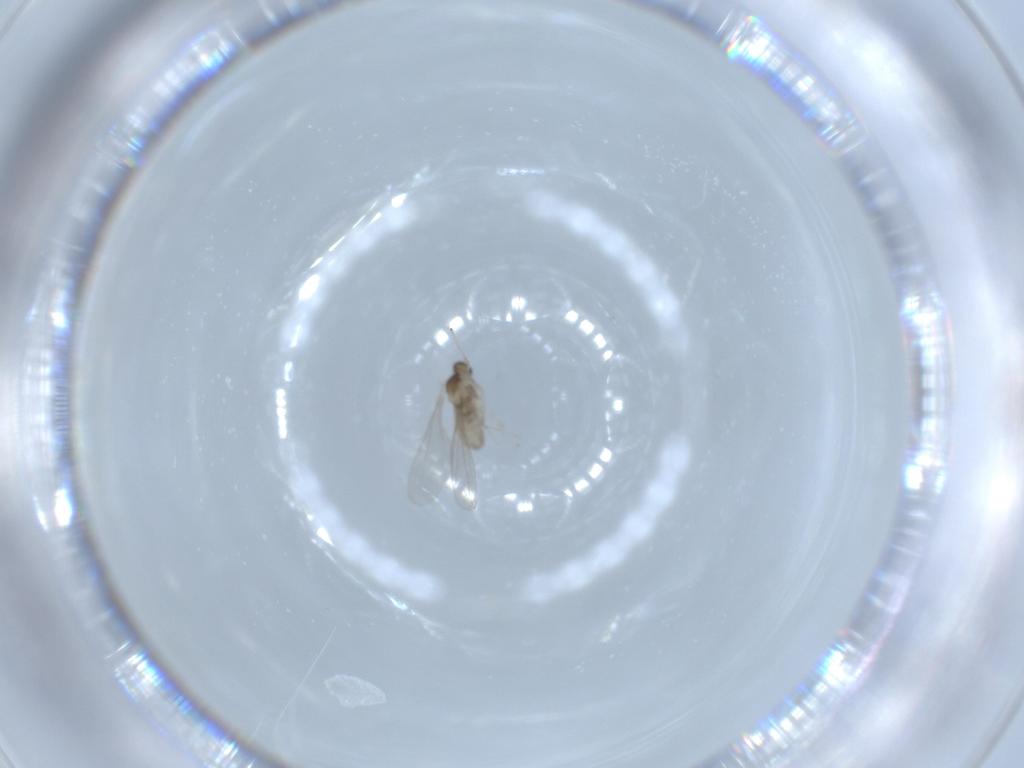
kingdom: Animalia
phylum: Arthropoda
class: Insecta
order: Diptera
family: Cecidomyiidae
